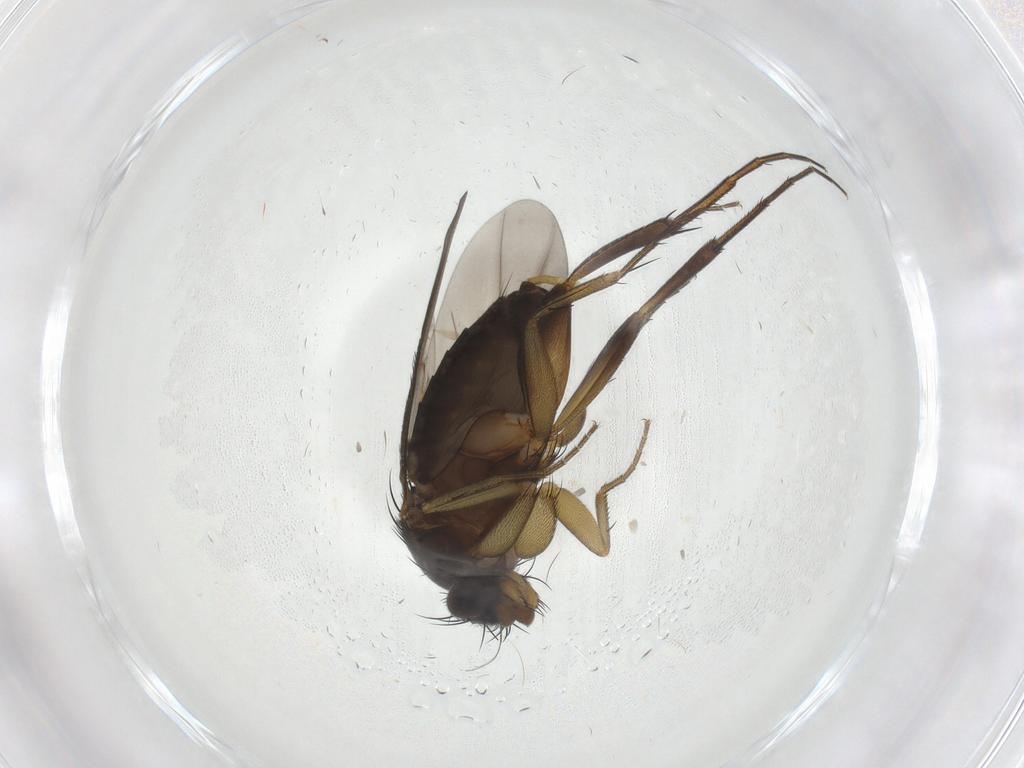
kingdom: Animalia
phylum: Arthropoda
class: Insecta
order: Diptera
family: Phoridae
